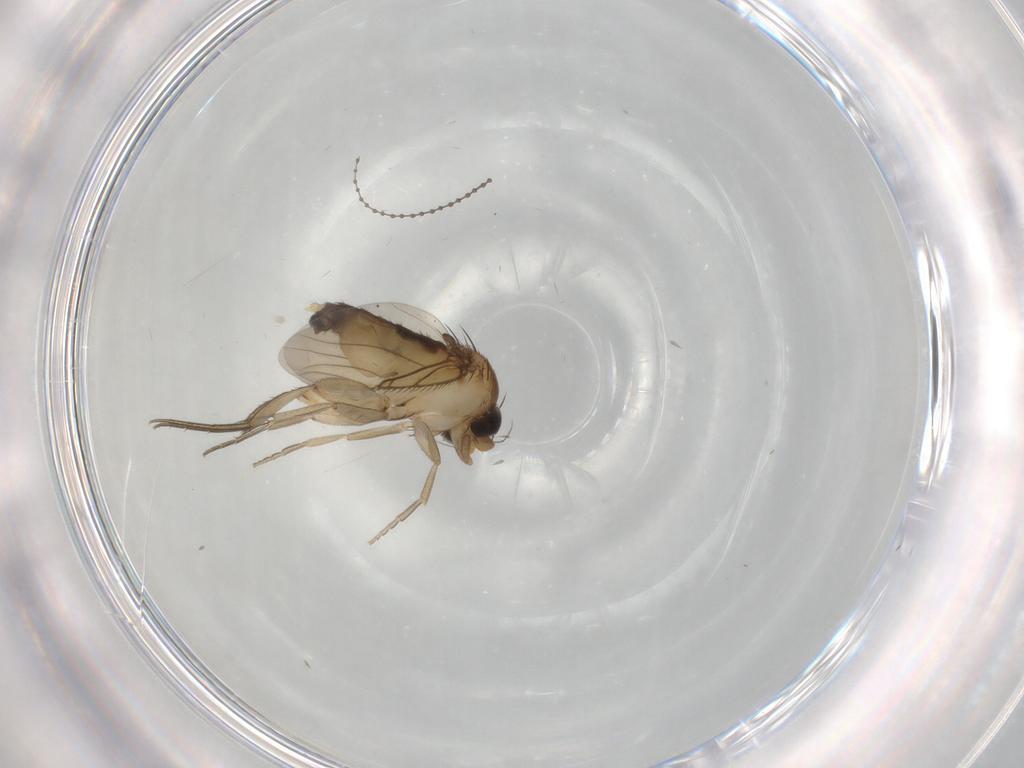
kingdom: Animalia
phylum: Arthropoda
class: Insecta
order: Diptera
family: Phoridae
